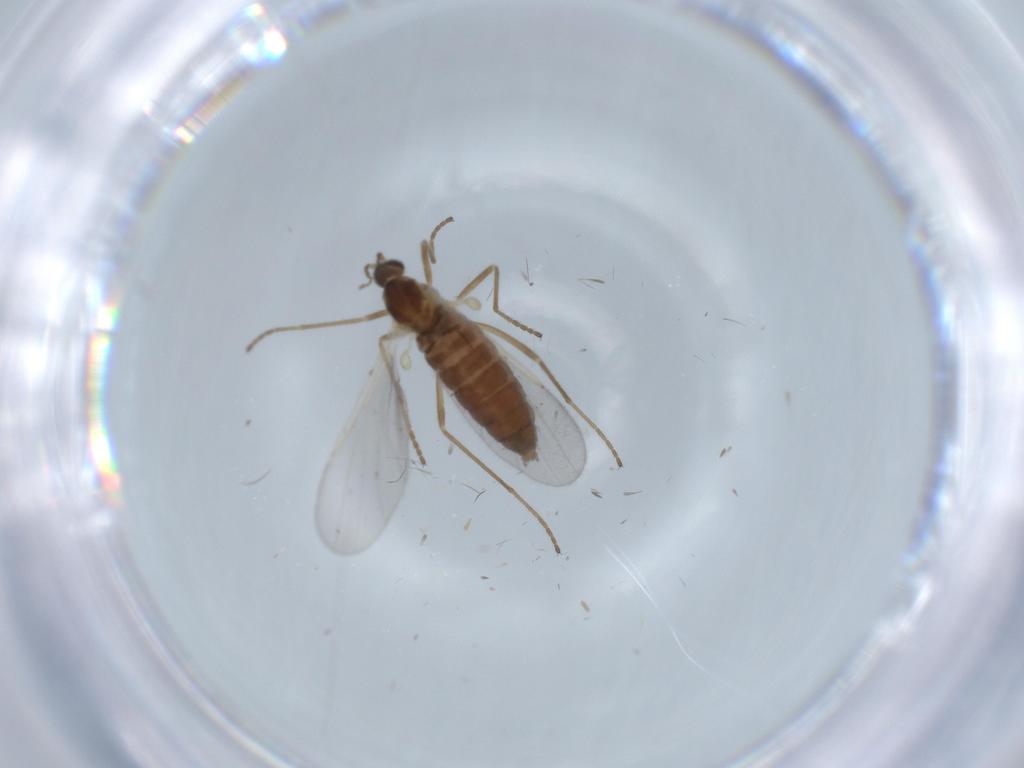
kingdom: Animalia
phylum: Arthropoda
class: Insecta
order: Diptera
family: Cecidomyiidae
